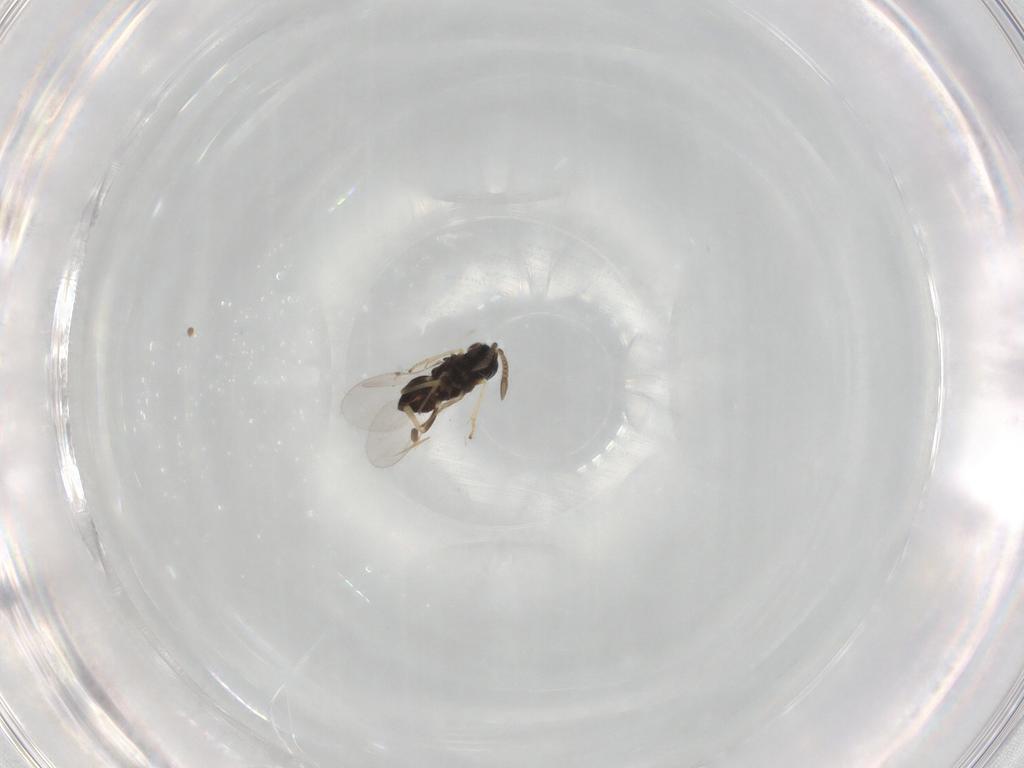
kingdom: Animalia
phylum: Arthropoda
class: Insecta
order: Hymenoptera
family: Encyrtidae
